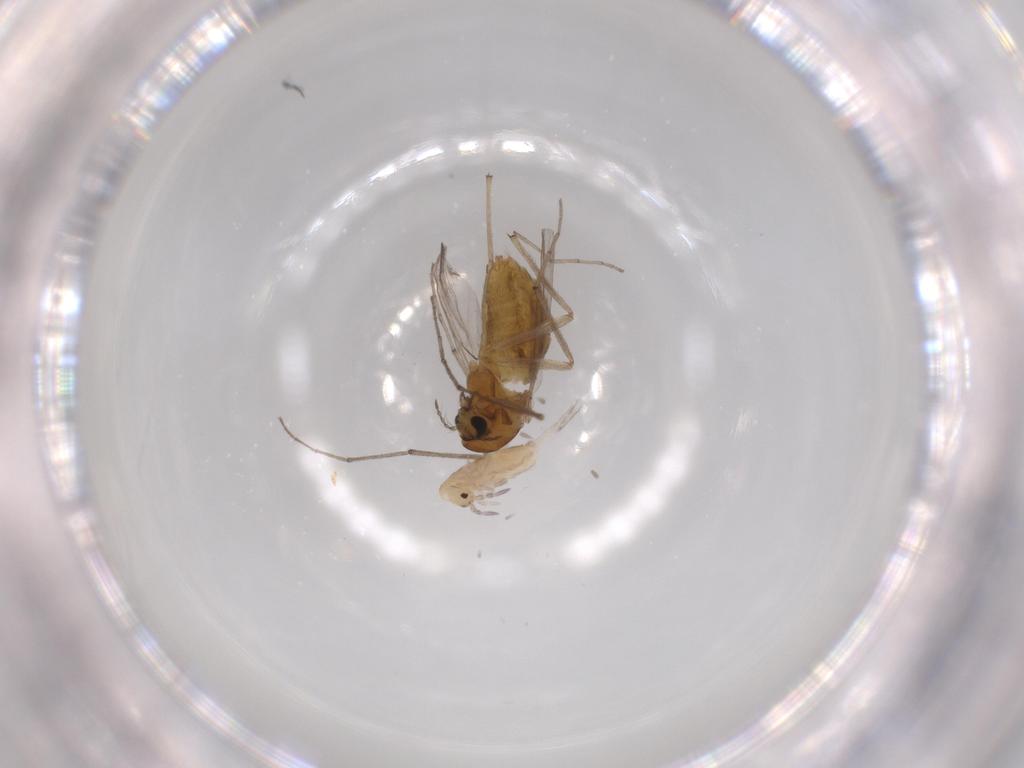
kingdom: Animalia
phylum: Arthropoda
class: Insecta
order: Diptera
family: Chironomidae
